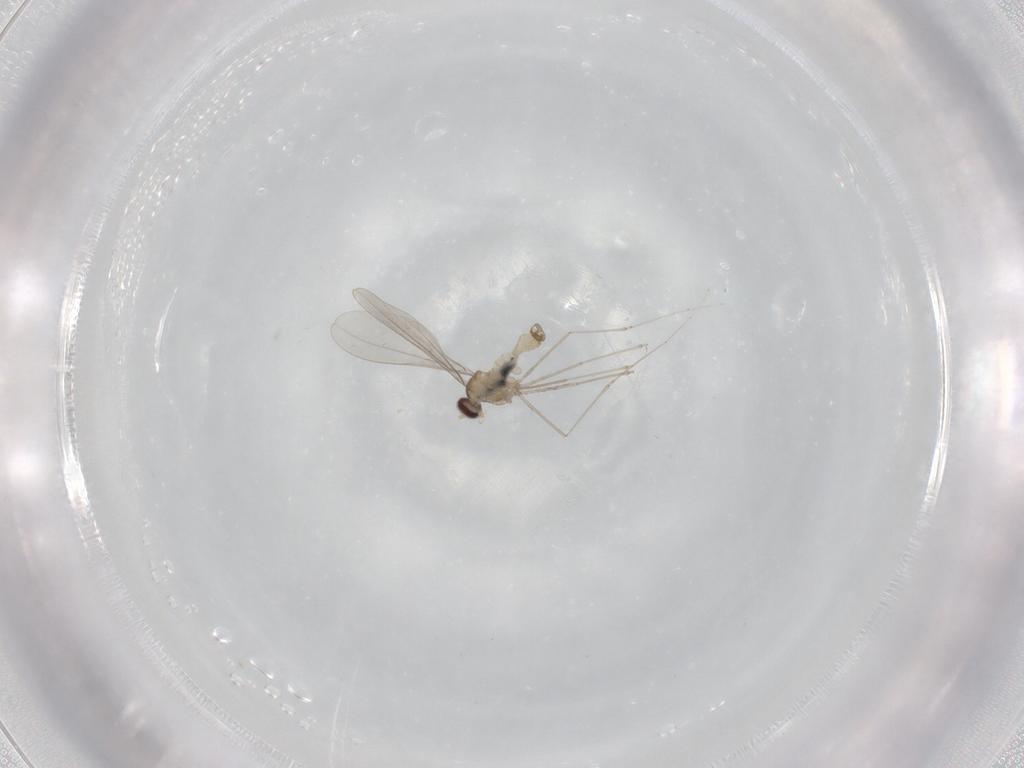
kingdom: Animalia
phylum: Arthropoda
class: Insecta
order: Diptera
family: Cecidomyiidae
